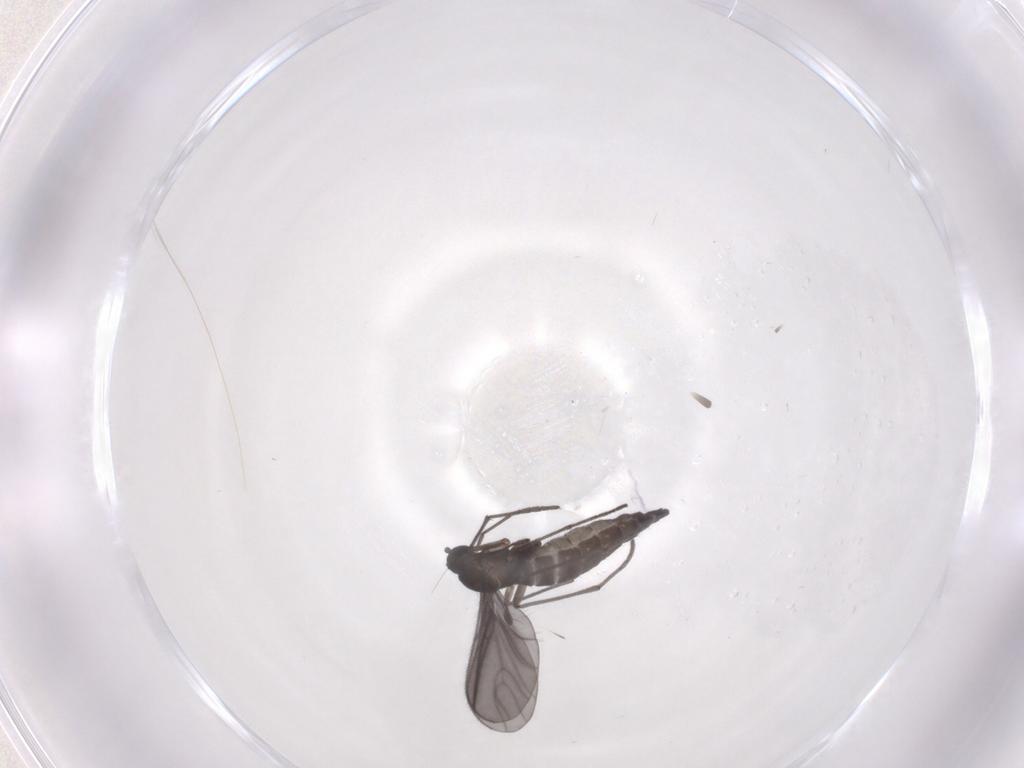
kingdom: Animalia
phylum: Arthropoda
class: Insecta
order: Diptera
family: Sciaridae
